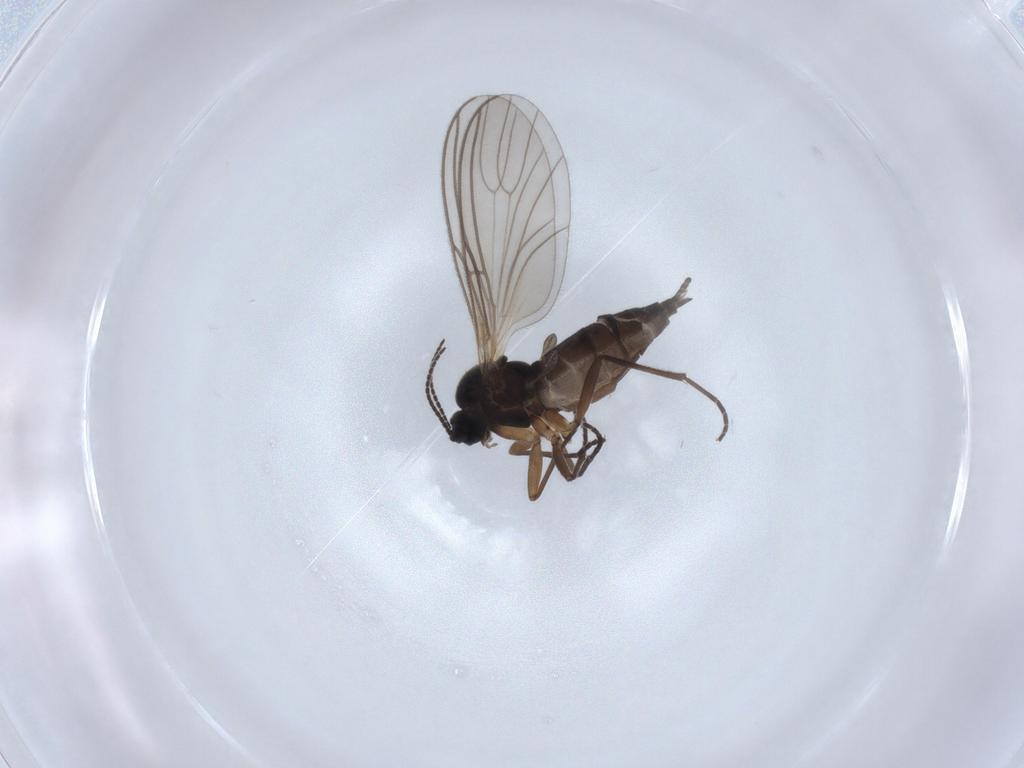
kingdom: Animalia
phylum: Arthropoda
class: Insecta
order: Diptera
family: Sciaridae
